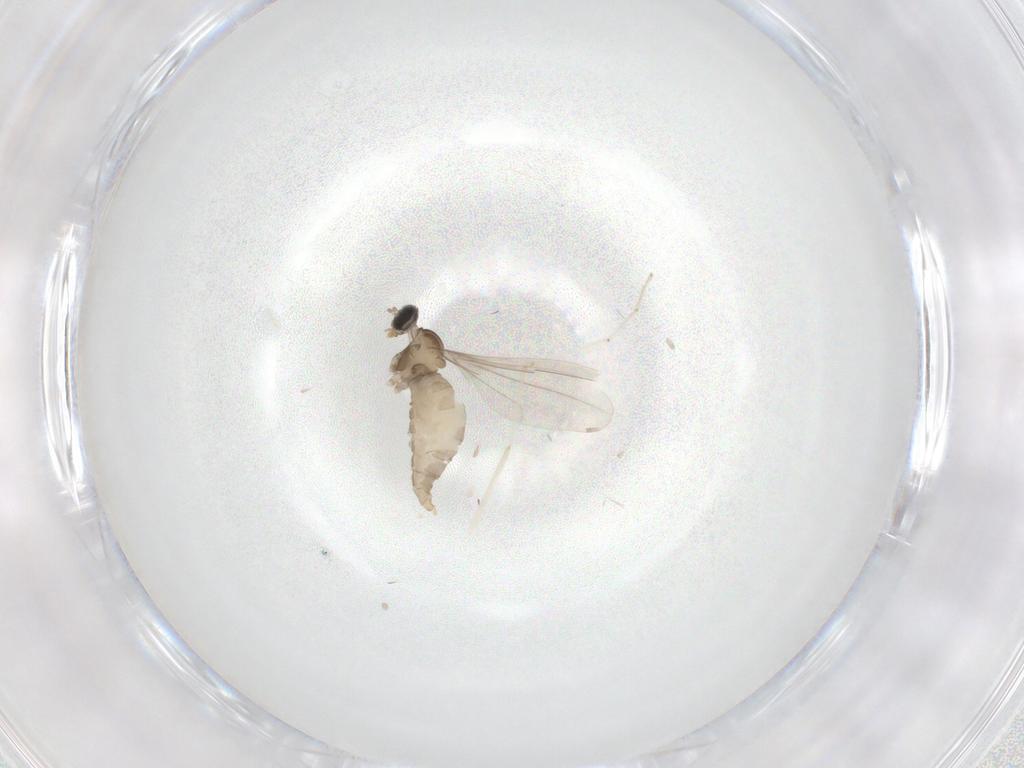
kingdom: Animalia
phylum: Arthropoda
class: Insecta
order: Diptera
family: Cecidomyiidae
